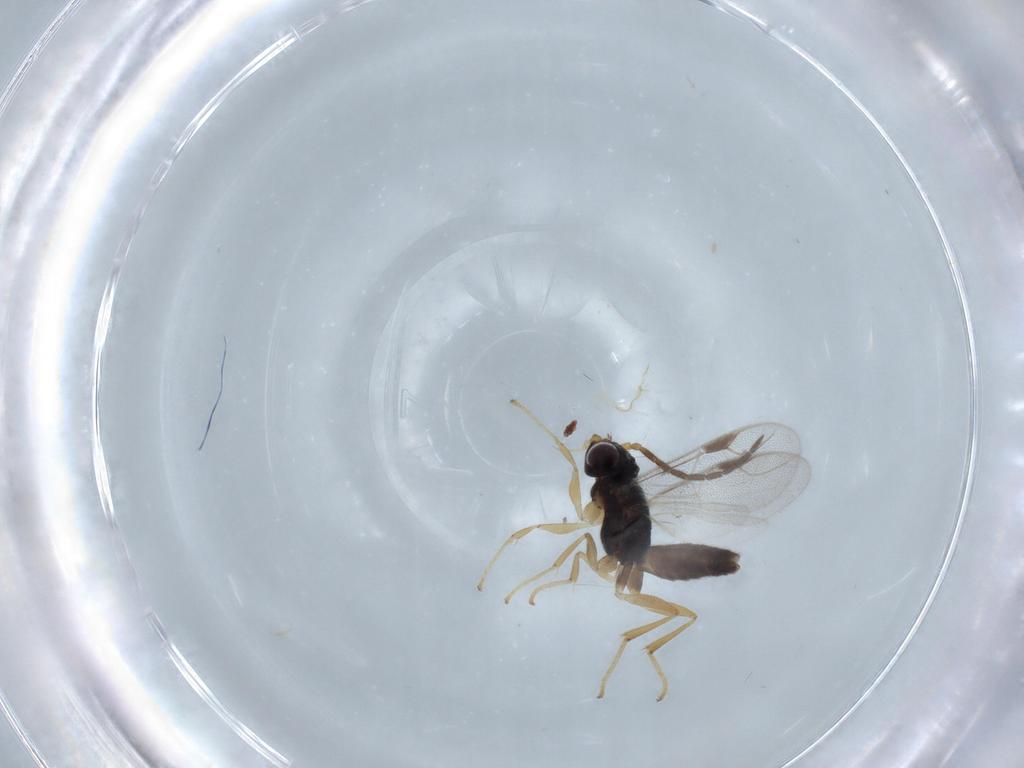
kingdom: Animalia
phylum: Arthropoda
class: Insecta
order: Hymenoptera
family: Dryinidae
